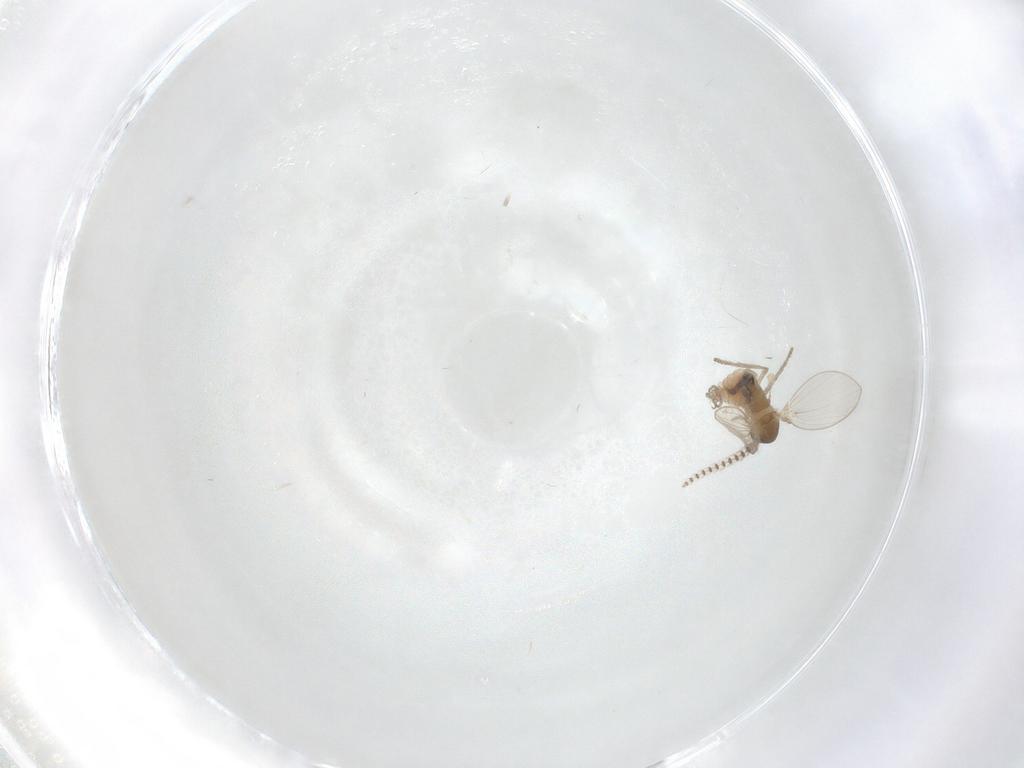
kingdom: Animalia
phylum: Arthropoda
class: Insecta
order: Diptera
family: Psychodidae
